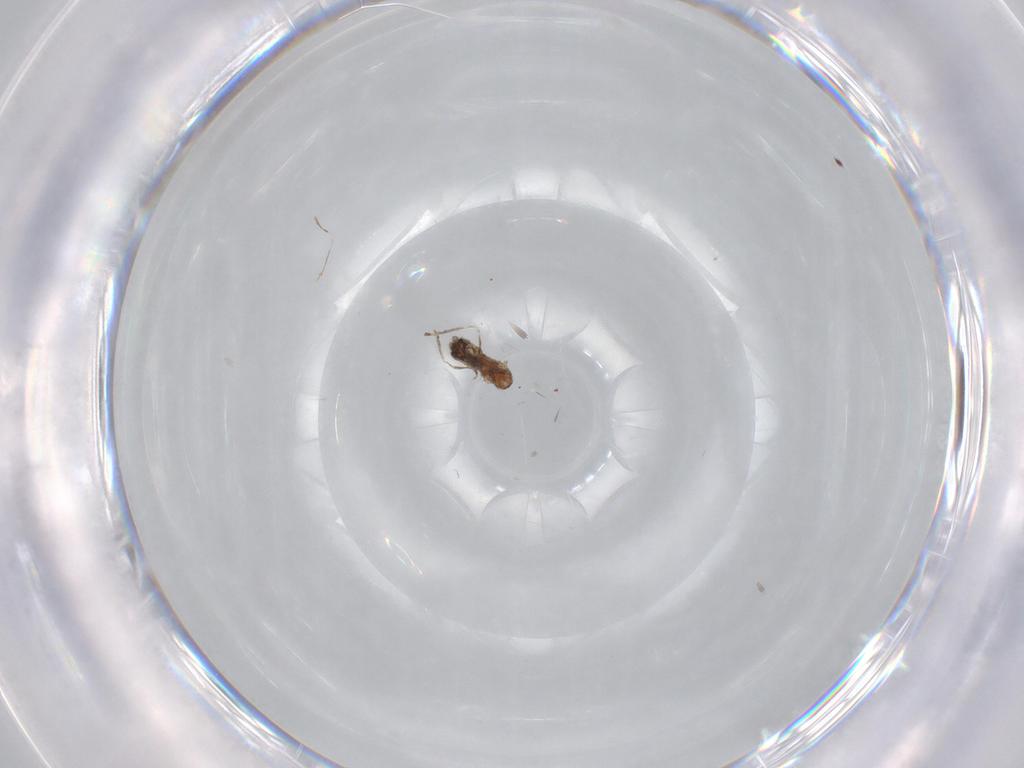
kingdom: Animalia
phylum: Arthropoda
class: Insecta
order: Diptera
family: Cecidomyiidae
